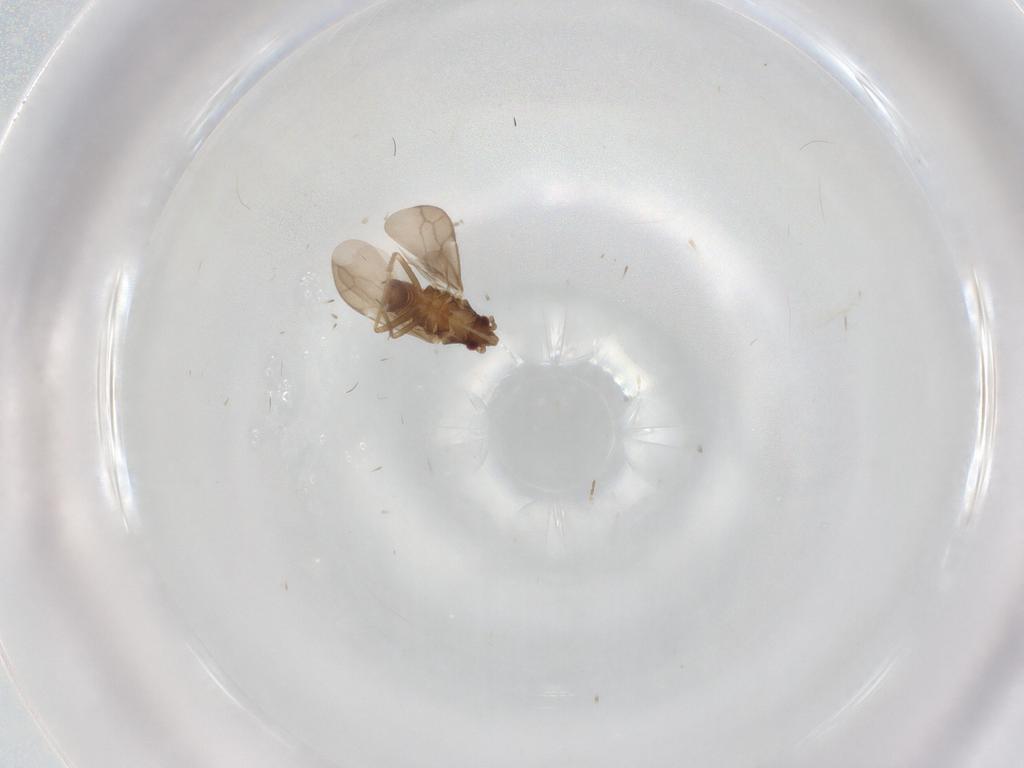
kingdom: Animalia
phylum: Arthropoda
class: Insecta
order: Hemiptera
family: Ceratocombidae
